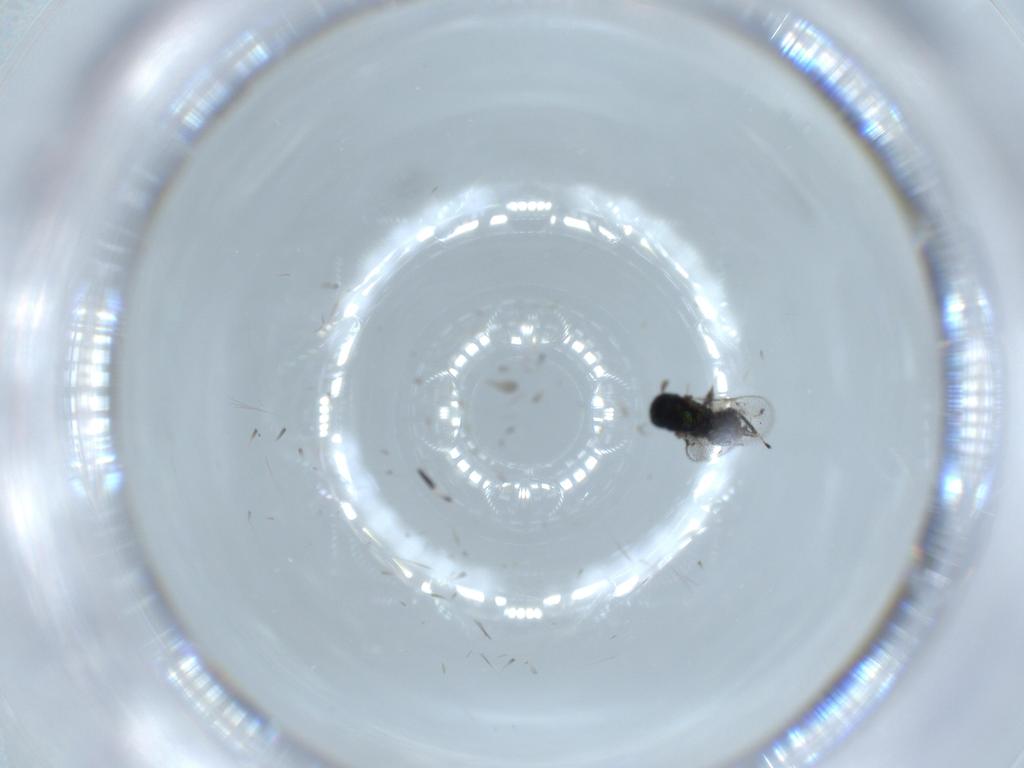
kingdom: Animalia
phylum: Arthropoda
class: Insecta
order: Hymenoptera
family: Eulophidae
